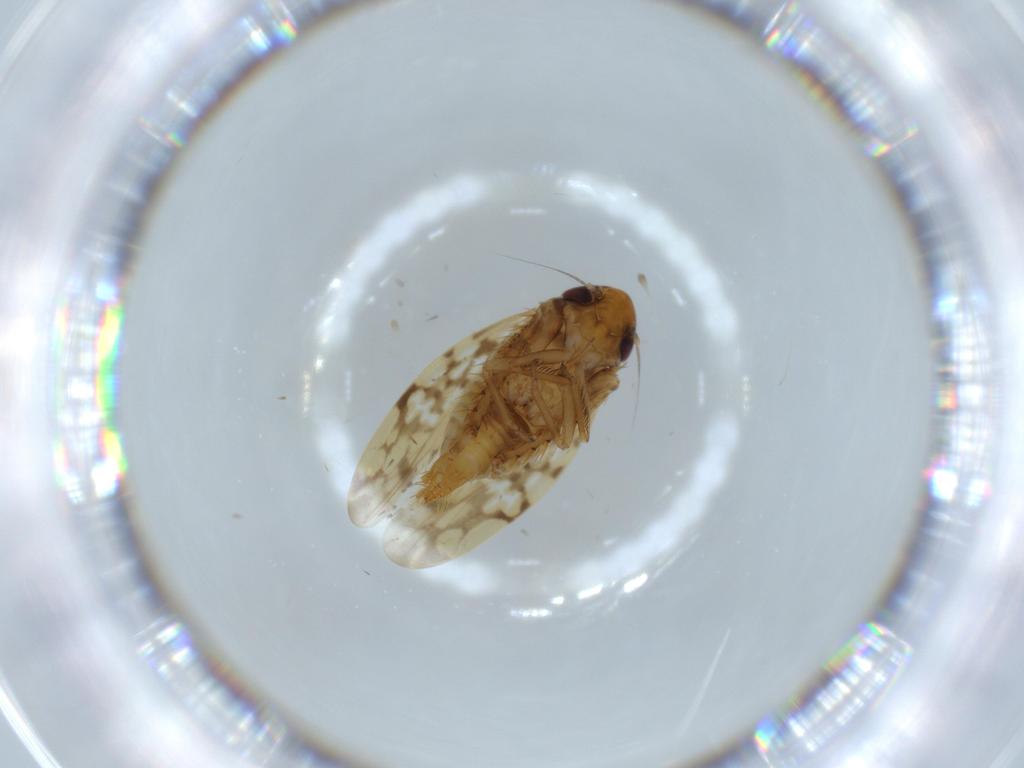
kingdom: Animalia
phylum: Arthropoda
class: Insecta
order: Hemiptera
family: Cicadellidae
